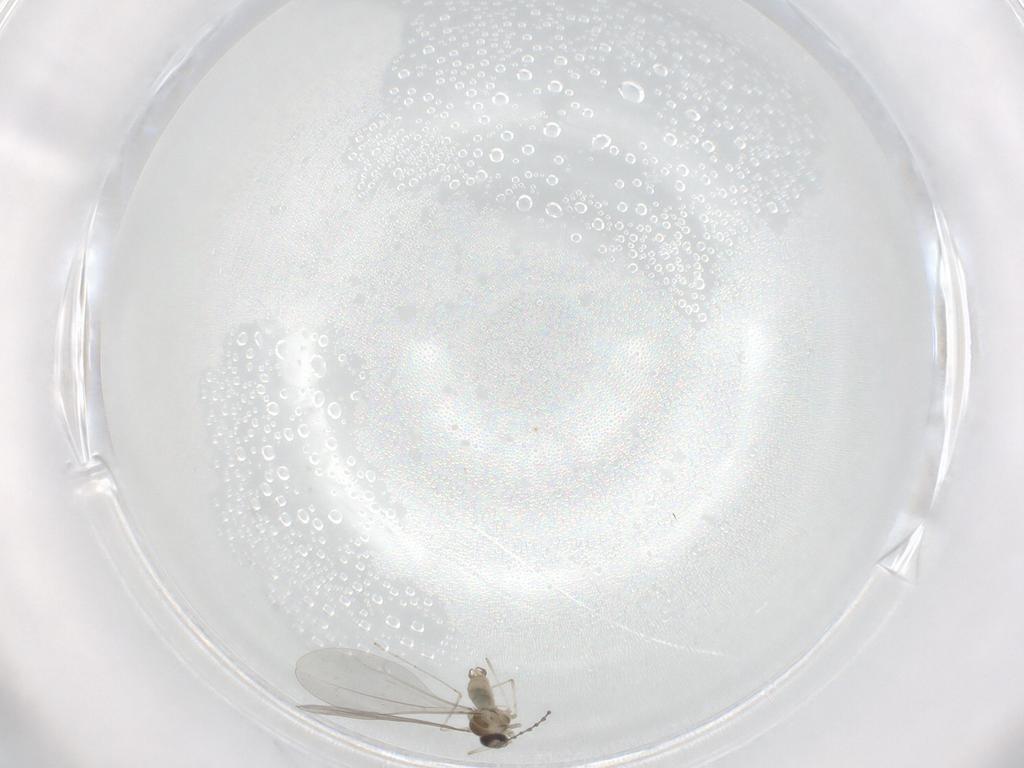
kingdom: Animalia
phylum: Arthropoda
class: Insecta
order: Diptera
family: Cecidomyiidae
